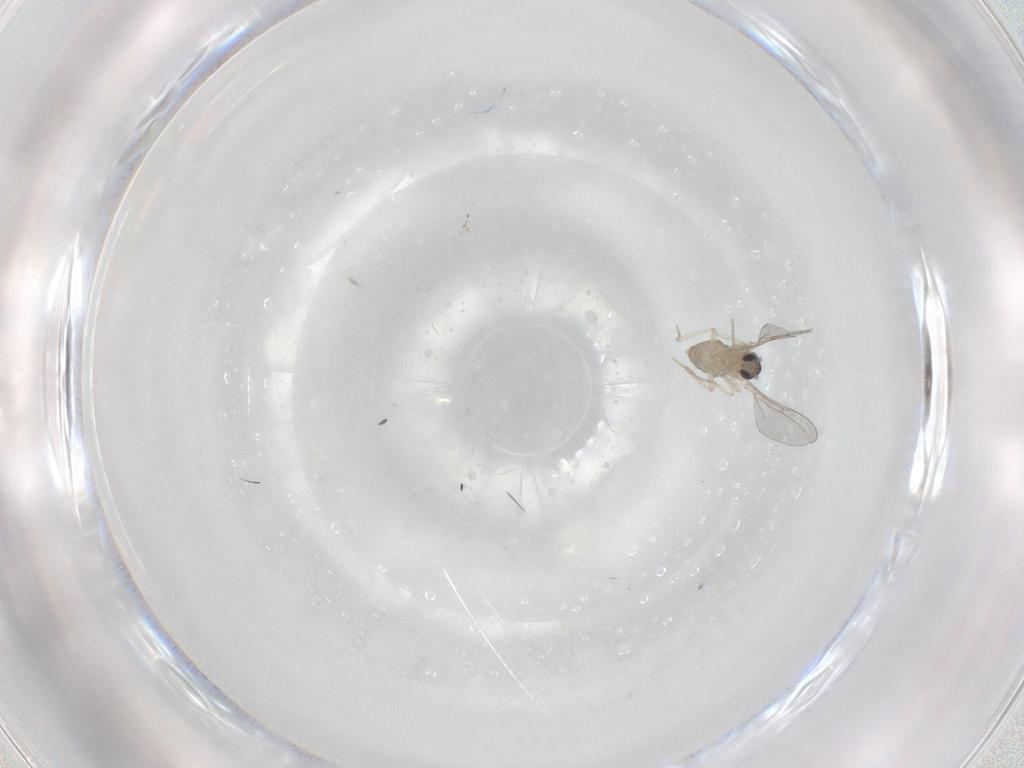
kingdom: Animalia
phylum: Arthropoda
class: Insecta
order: Diptera
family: Cecidomyiidae
